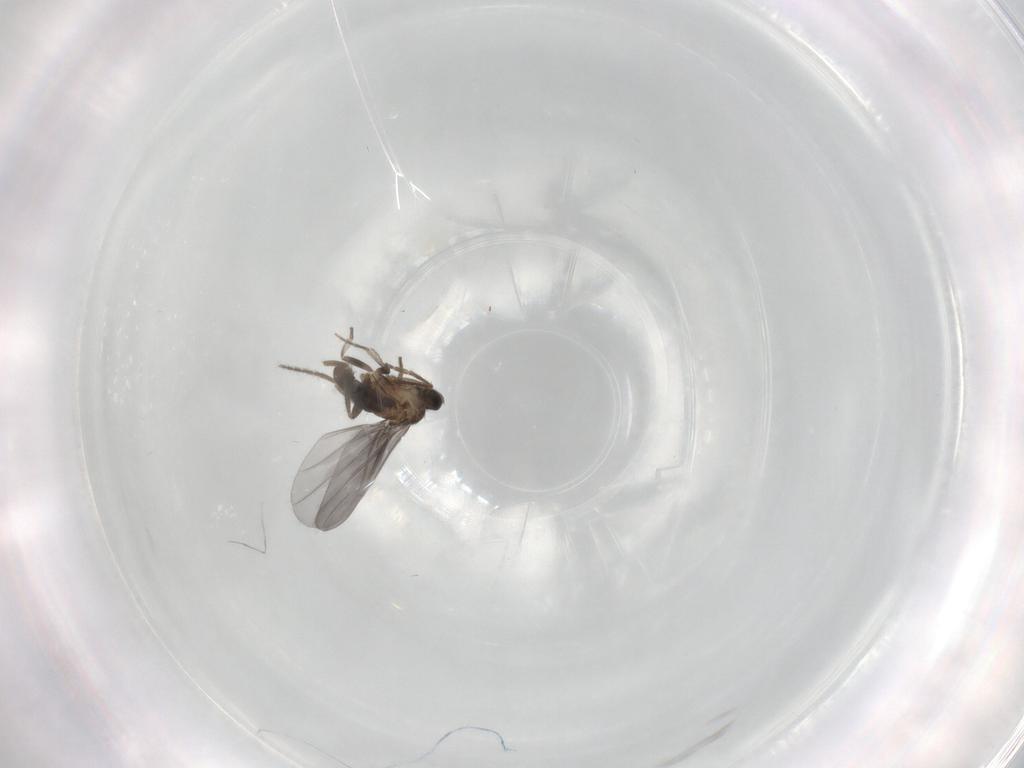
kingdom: Animalia
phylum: Arthropoda
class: Insecta
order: Diptera
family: Phoridae
